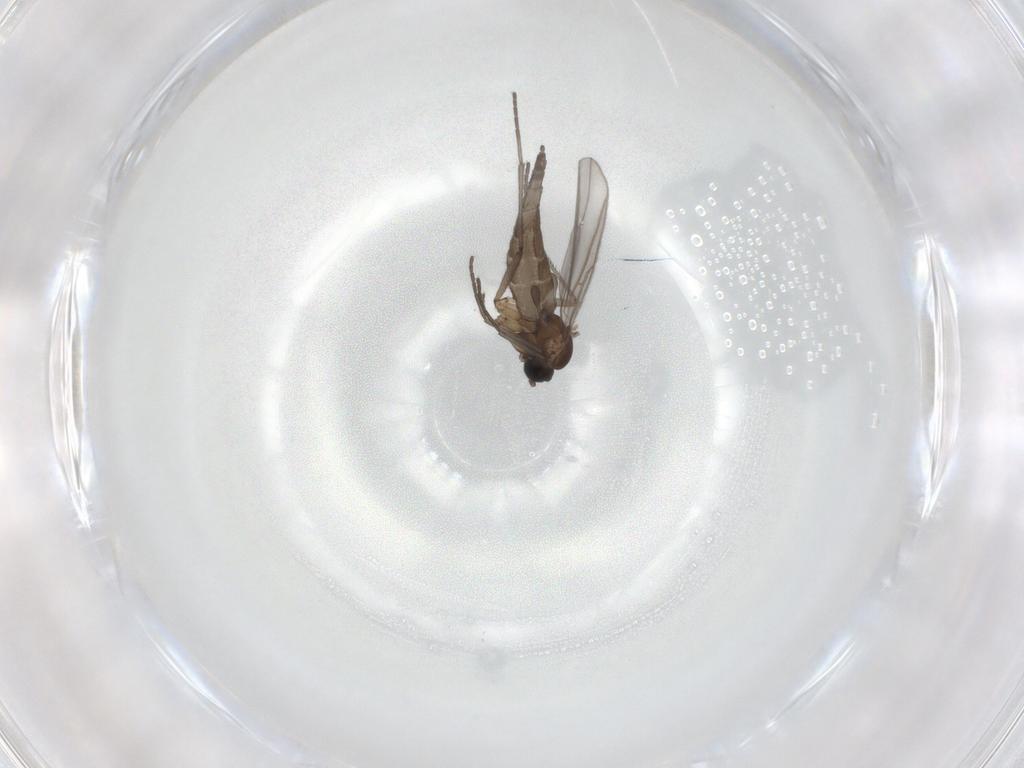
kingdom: Animalia
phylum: Arthropoda
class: Insecta
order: Diptera
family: Sciaridae
